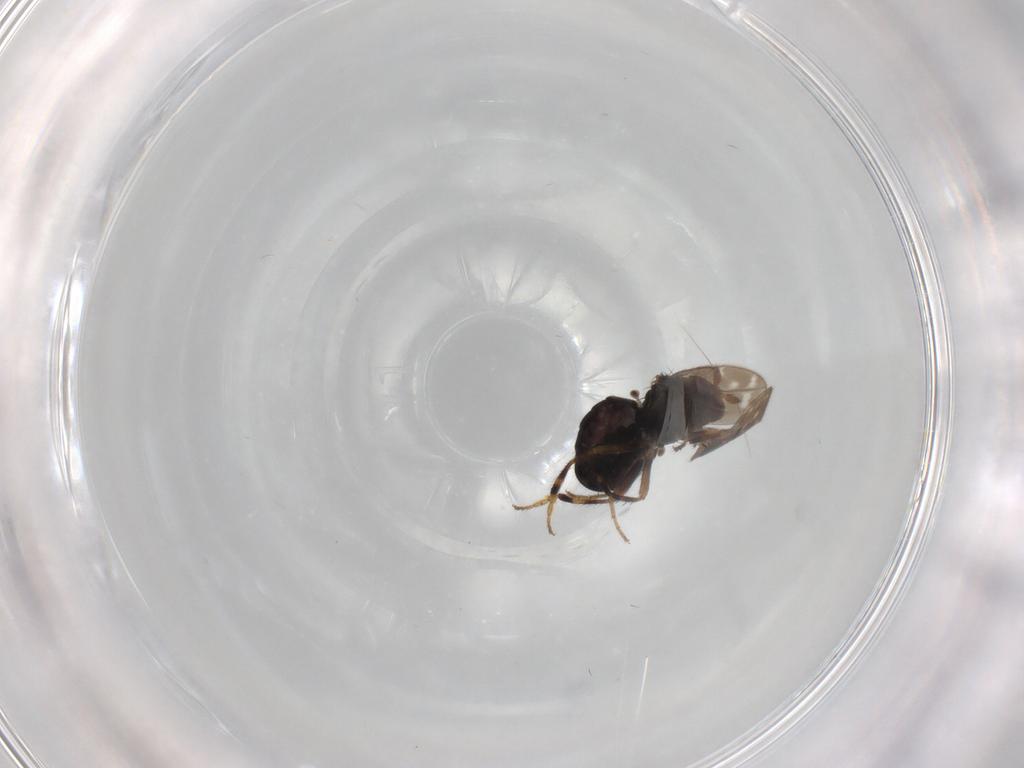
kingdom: Animalia
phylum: Arthropoda
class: Insecta
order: Diptera
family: Sphaeroceridae
